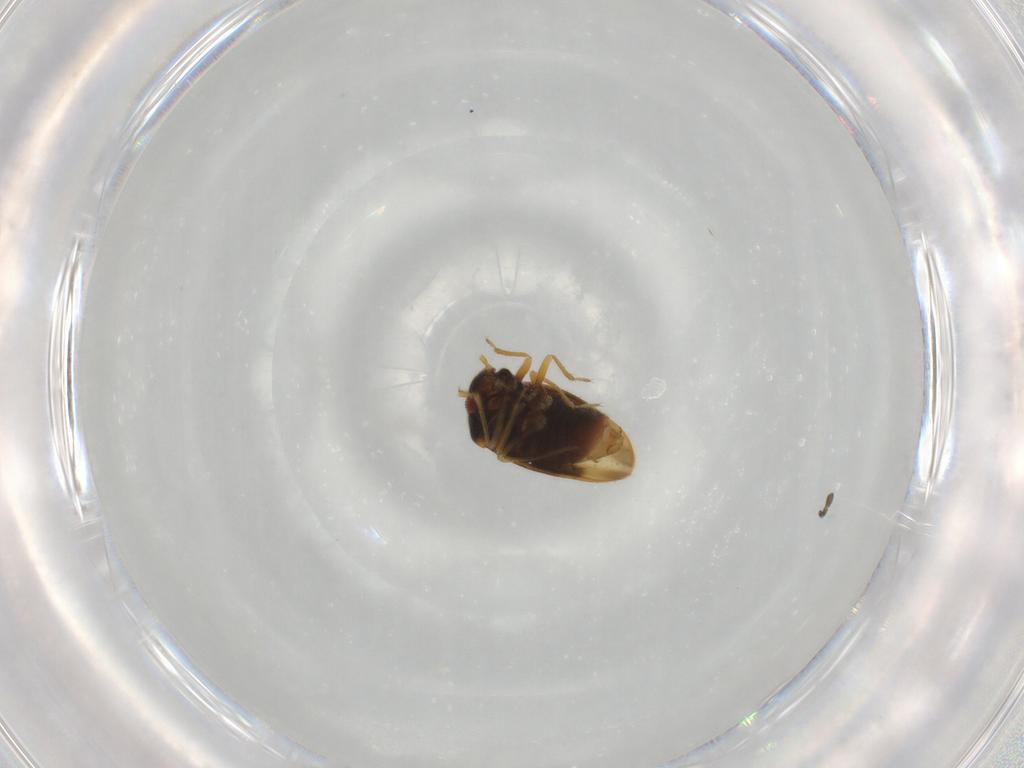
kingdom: Animalia
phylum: Arthropoda
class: Insecta
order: Hemiptera
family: Schizopteridae
